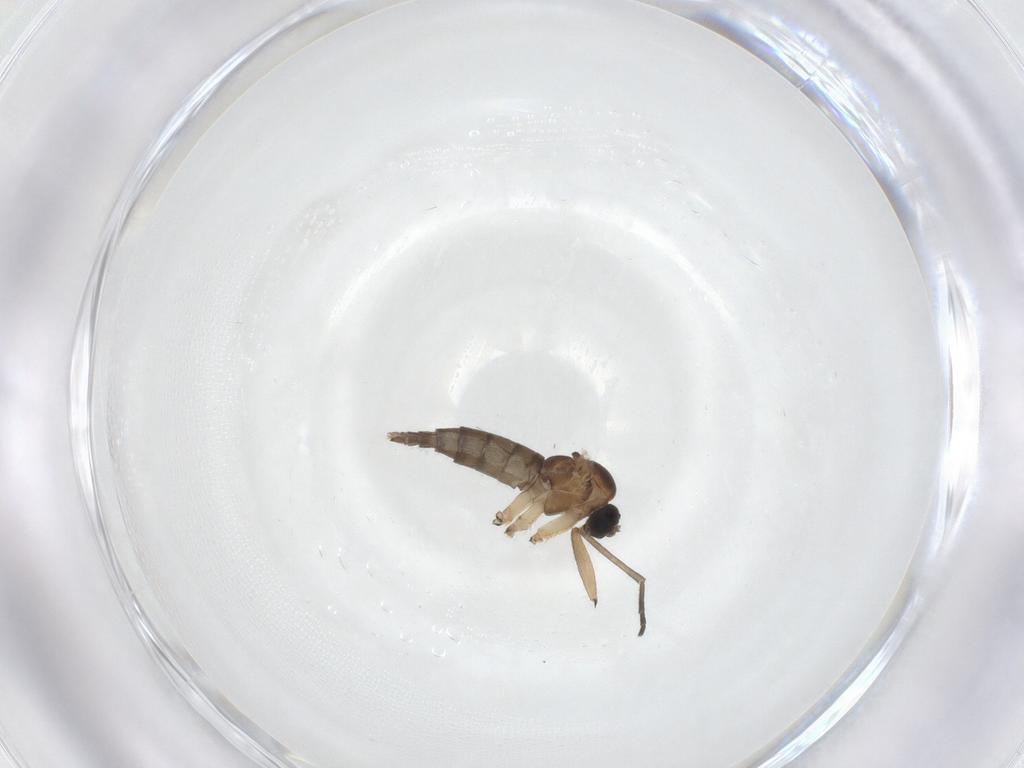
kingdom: Animalia
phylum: Arthropoda
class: Insecta
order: Diptera
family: Sciaridae
